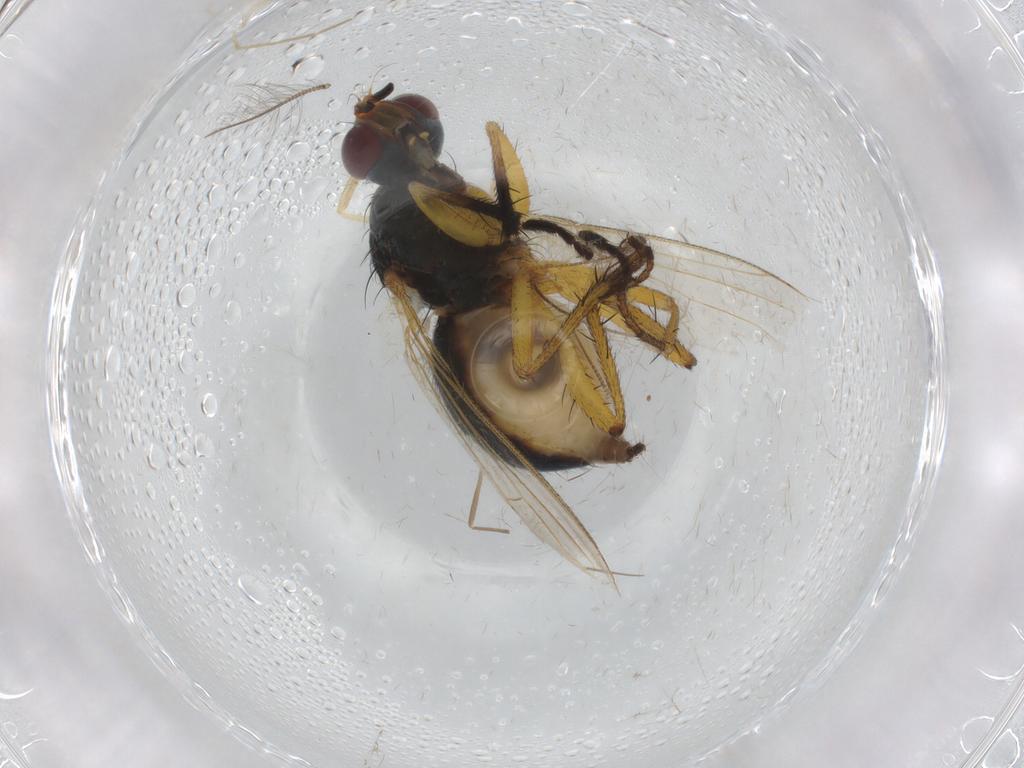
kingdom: Animalia
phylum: Arthropoda
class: Insecta
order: Diptera
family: Chironomidae
